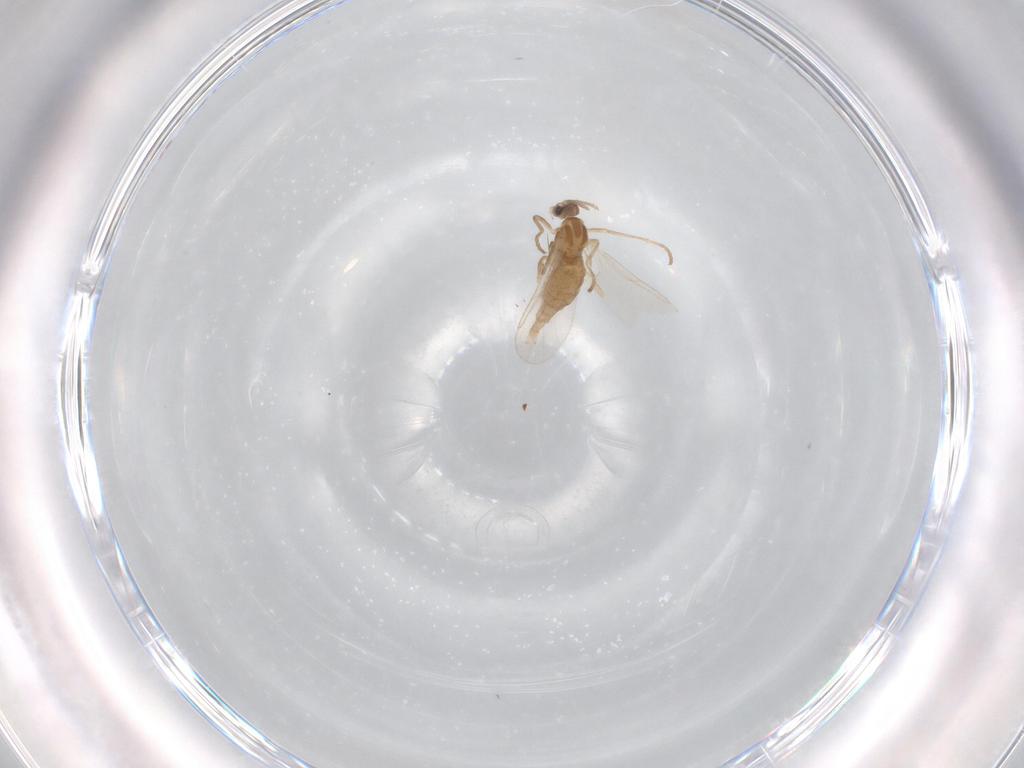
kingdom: Animalia
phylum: Arthropoda
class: Insecta
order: Diptera
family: Cecidomyiidae
